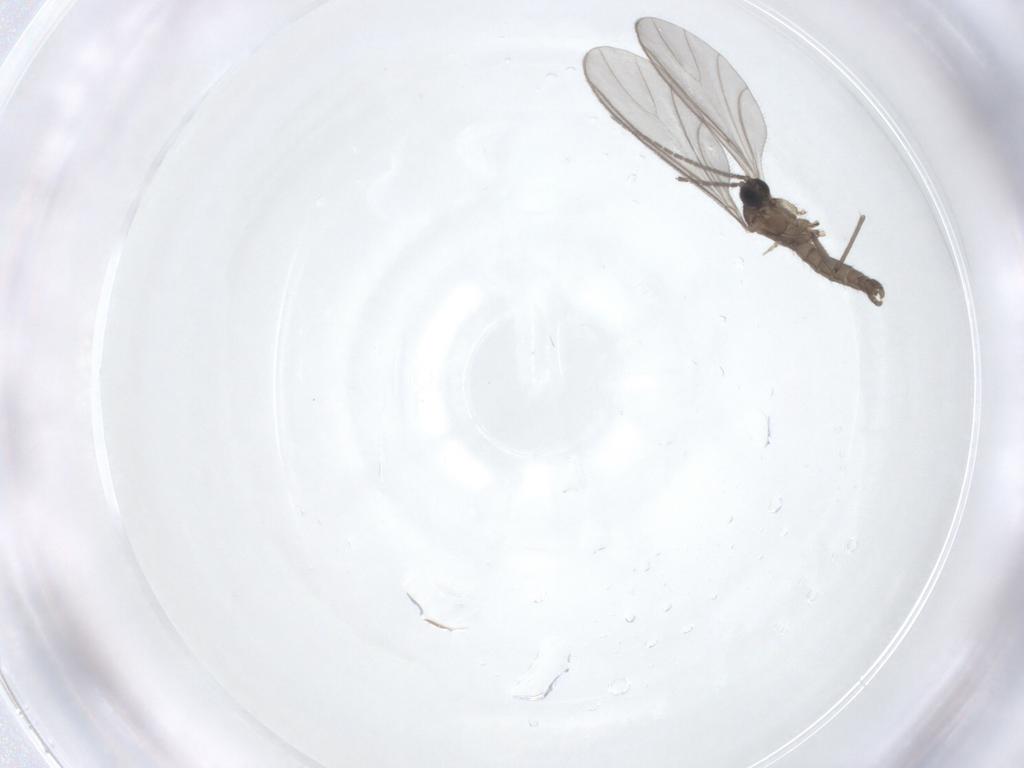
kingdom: Animalia
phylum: Arthropoda
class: Insecta
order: Diptera
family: Sciaridae
